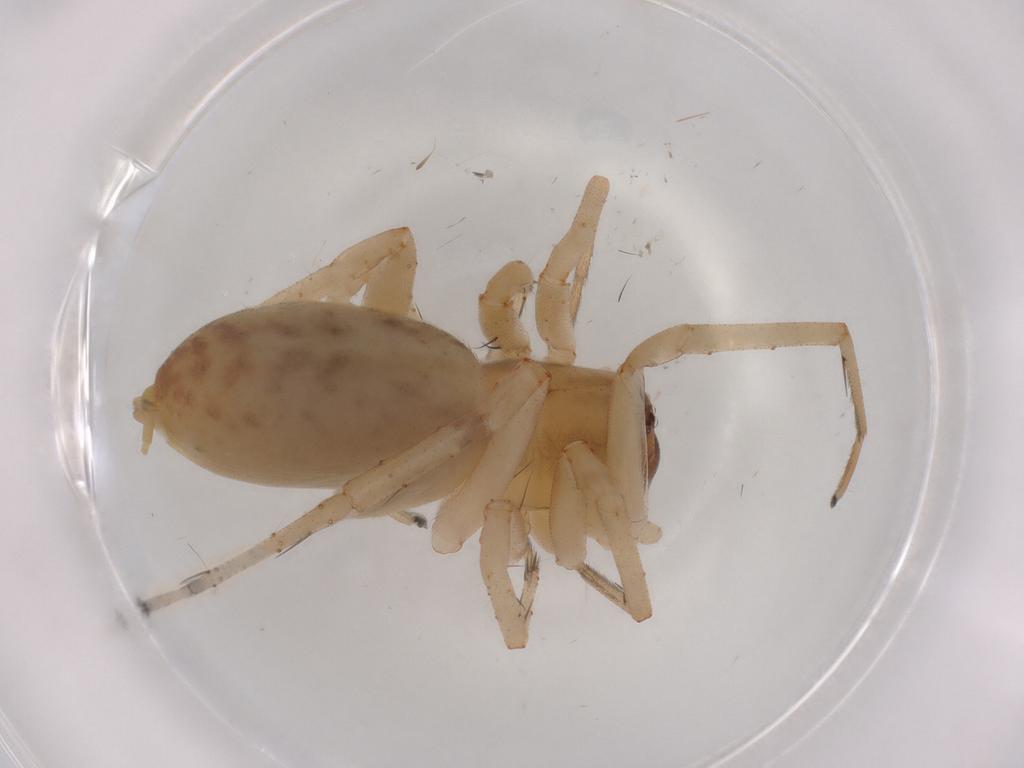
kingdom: Animalia
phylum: Arthropoda
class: Arachnida
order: Araneae
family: Anyphaenidae
